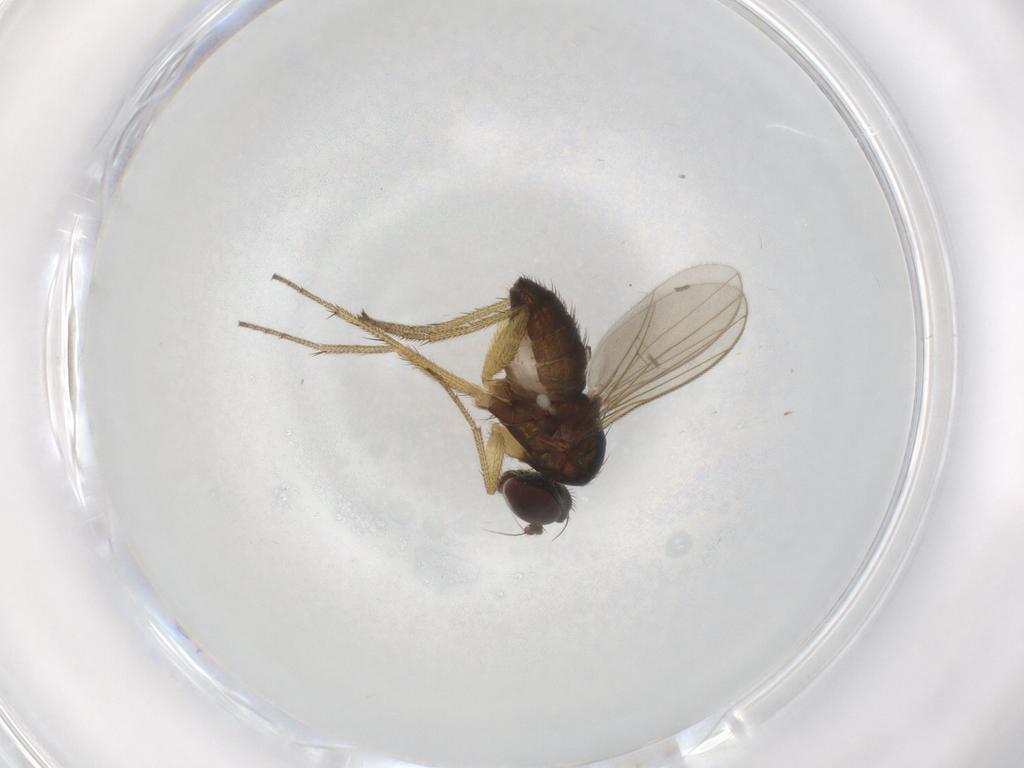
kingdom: Animalia
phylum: Arthropoda
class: Insecta
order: Diptera
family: Dolichopodidae
